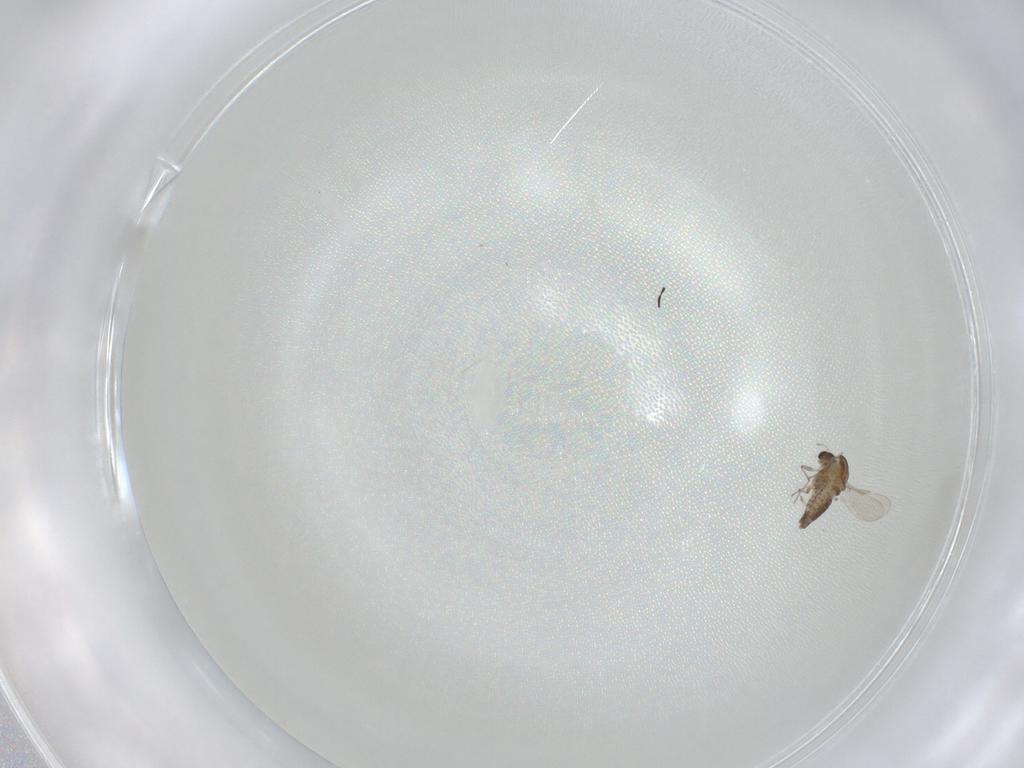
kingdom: Animalia
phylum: Arthropoda
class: Insecta
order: Diptera
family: Chironomidae
